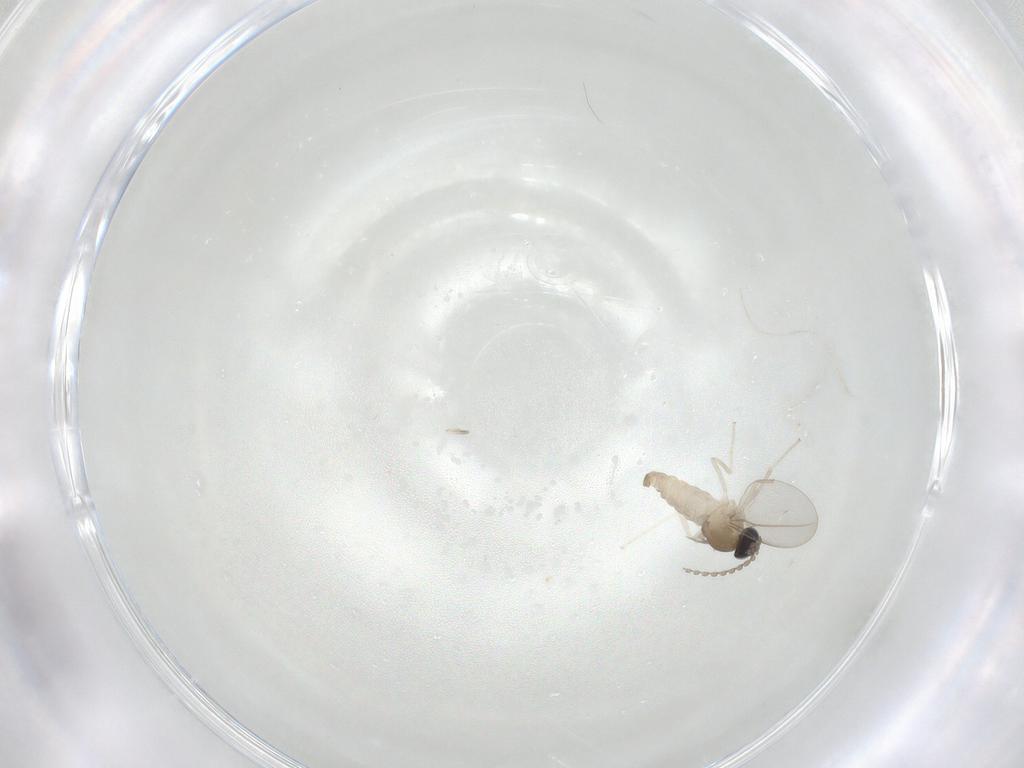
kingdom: Animalia
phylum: Arthropoda
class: Insecta
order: Diptera
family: Cecidomyiidae
